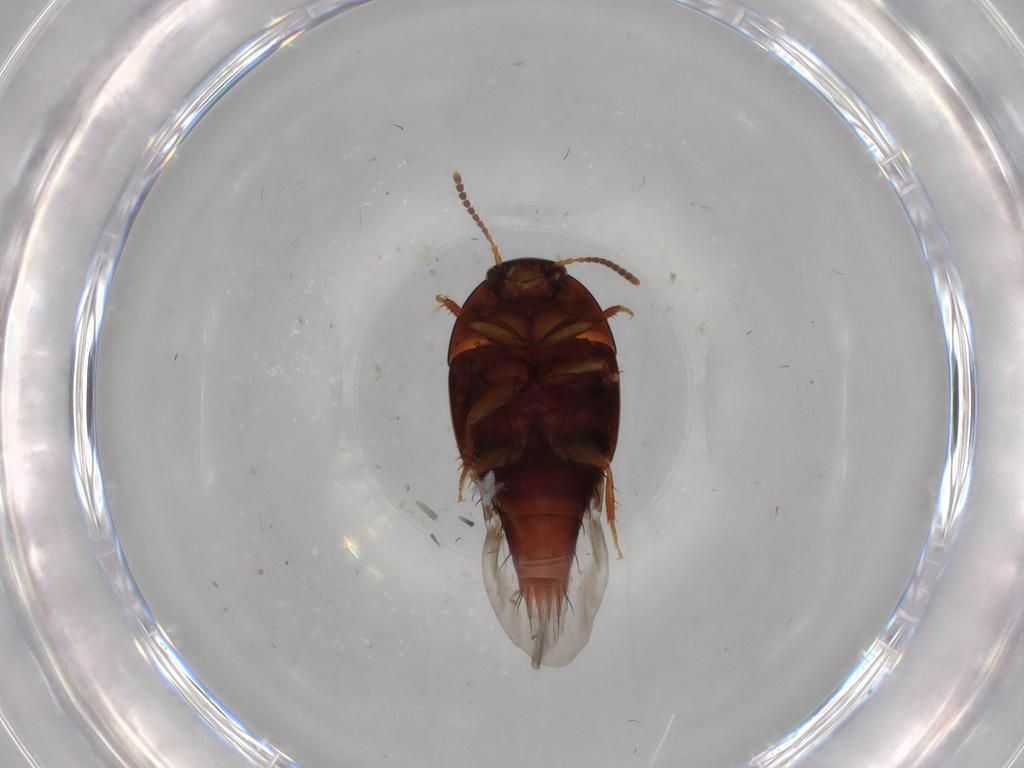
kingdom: Animalia
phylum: Arthropoda
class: Insecta
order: Coleoptera
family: Staphylinidae
